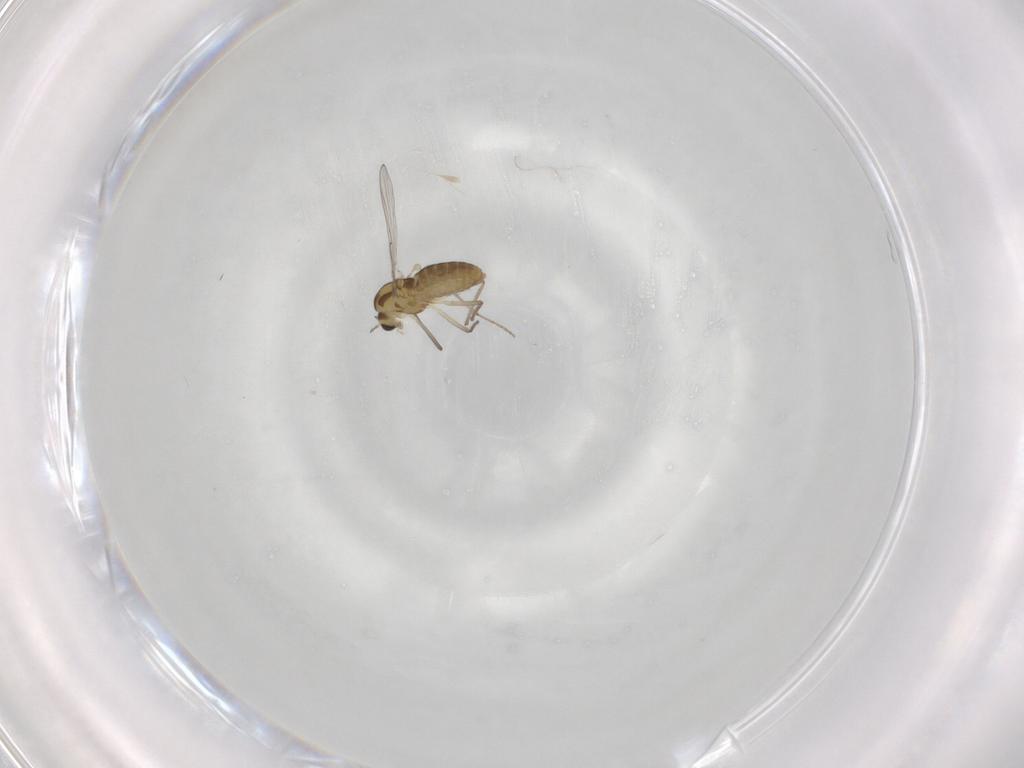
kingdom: Animalia
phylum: Arthropoda
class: Insecta
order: Diptera
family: Chironomidae
